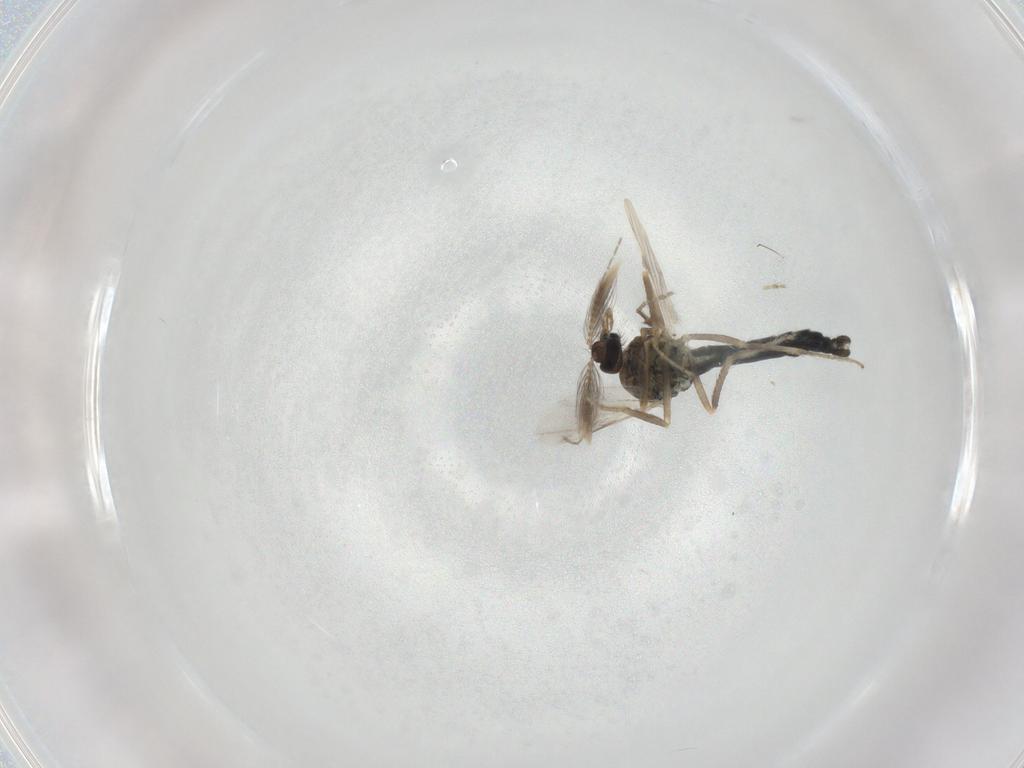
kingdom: Animalia
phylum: Arthropoda
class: Insecta
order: Diptera
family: Ceratopogonidae
